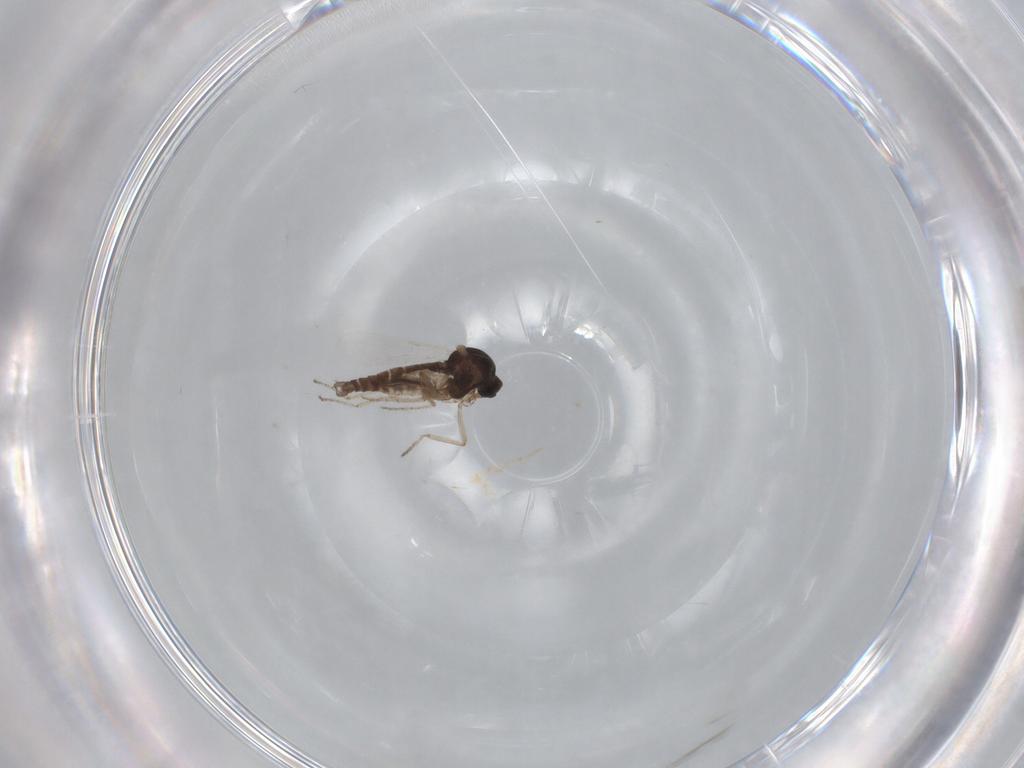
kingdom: Animalia
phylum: Arthropoda
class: Insecta
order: Diptera
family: Ceratopogonidae
